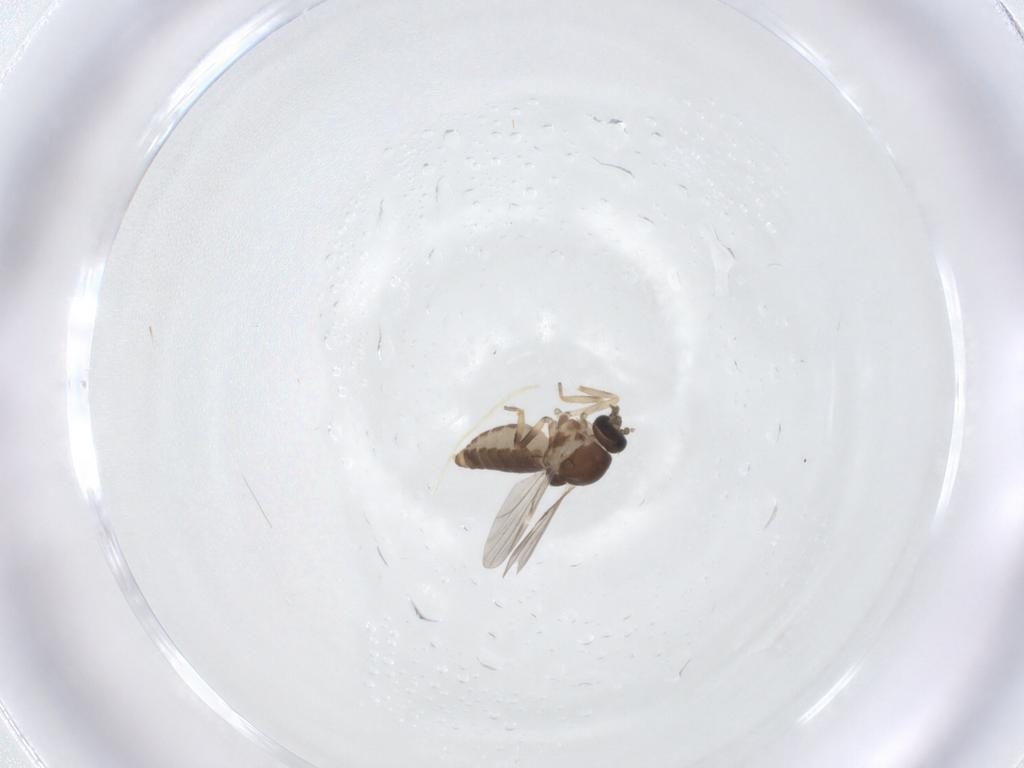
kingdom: Animalia
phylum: Arthropoda
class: Insecta
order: Diptera
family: Ceratopogonidae
